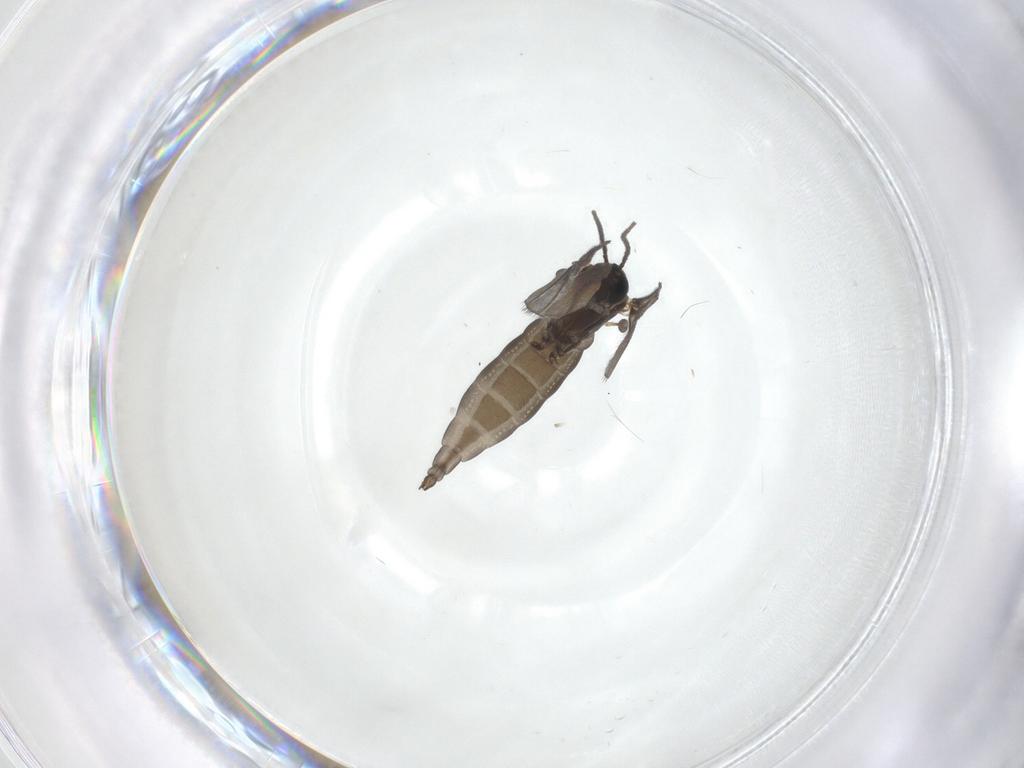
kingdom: Animalia
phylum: Arthropoda
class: Insecta
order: Diptera
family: Sciaridae
